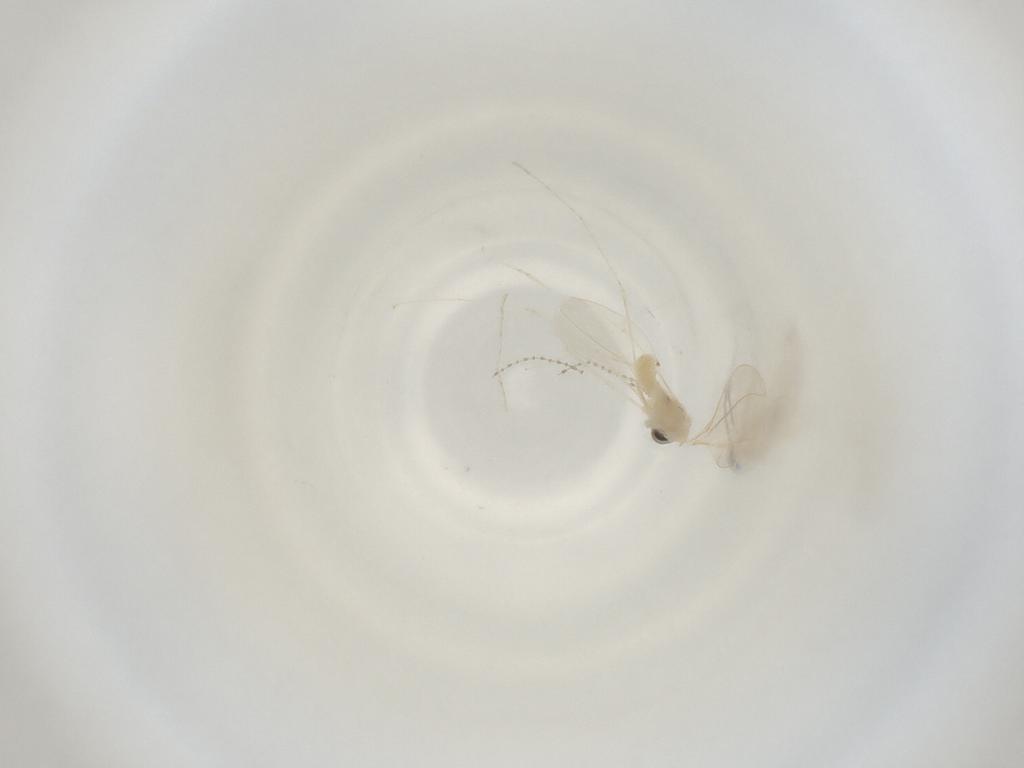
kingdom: Animalia
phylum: Arthropoda
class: Insecta
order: Diptera
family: Cecidomyiidae
